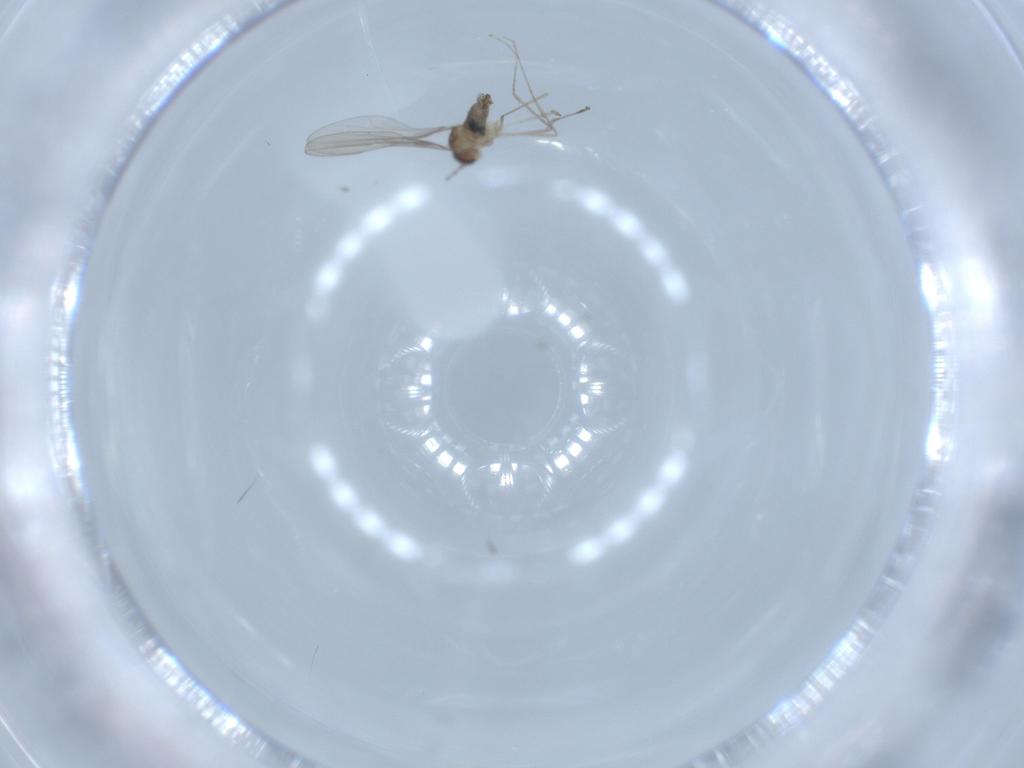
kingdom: Animalia
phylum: Arthropoda
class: Insecta
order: Diptera
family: Cecidomyiidae
